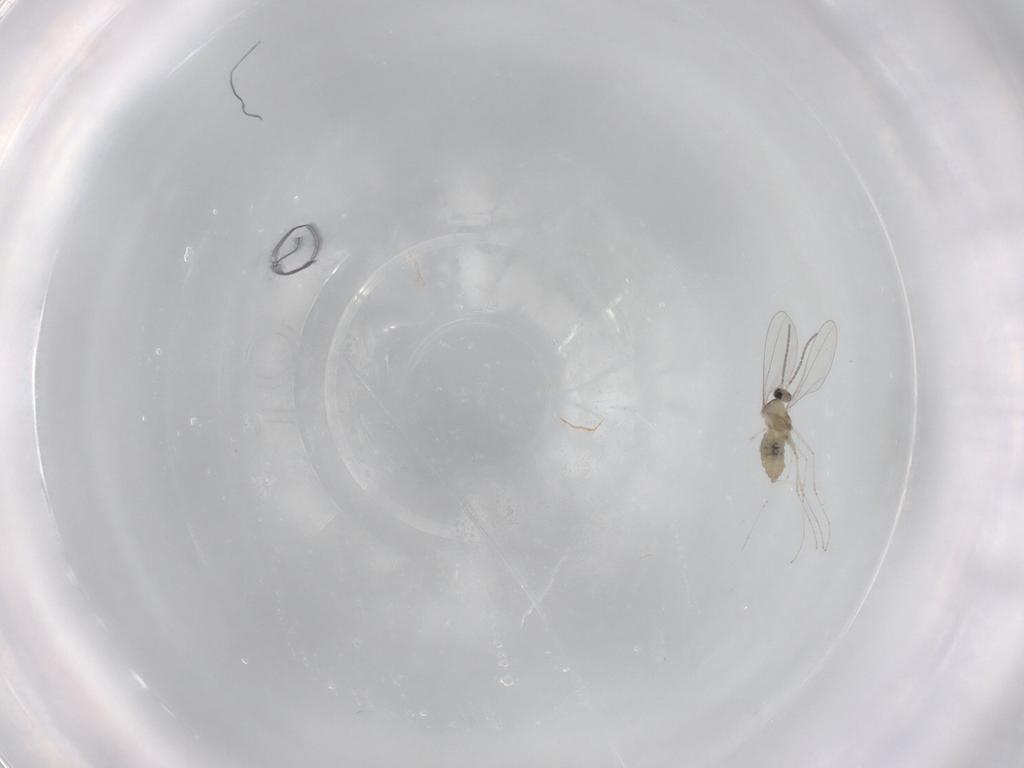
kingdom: Animalia
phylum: Arthropoda
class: Insecta
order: Diptera
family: Cecidomyiidae
